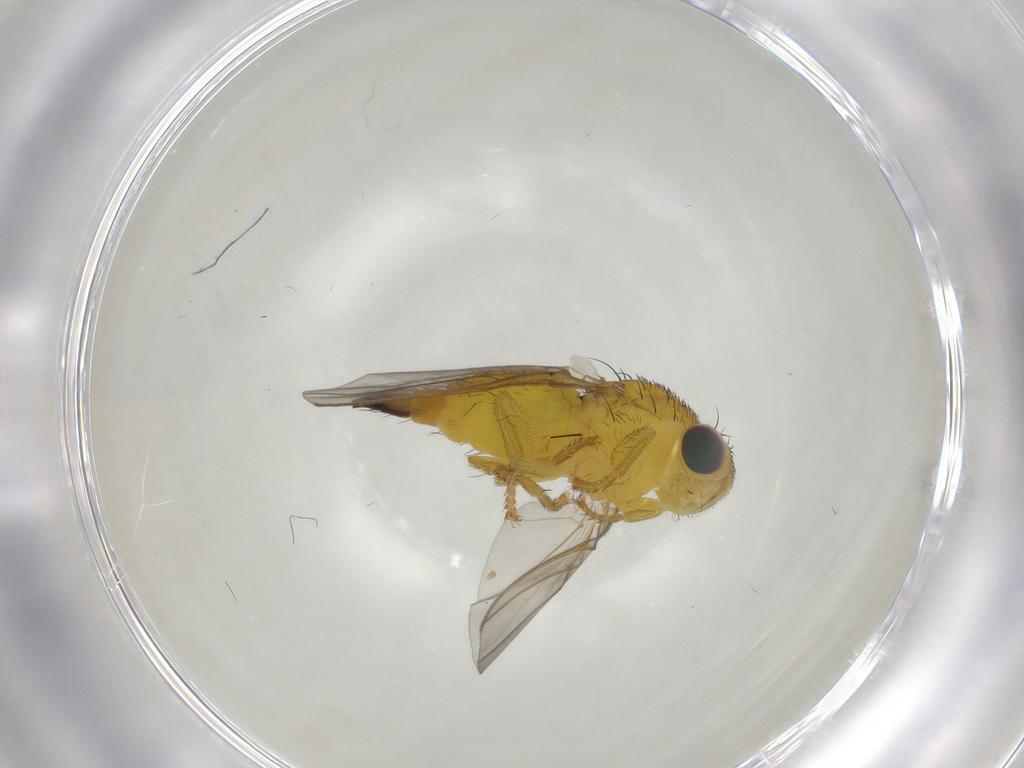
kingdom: Animalia
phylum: Arthropoda
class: Insecta
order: Diptera
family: Fergusoninidae
